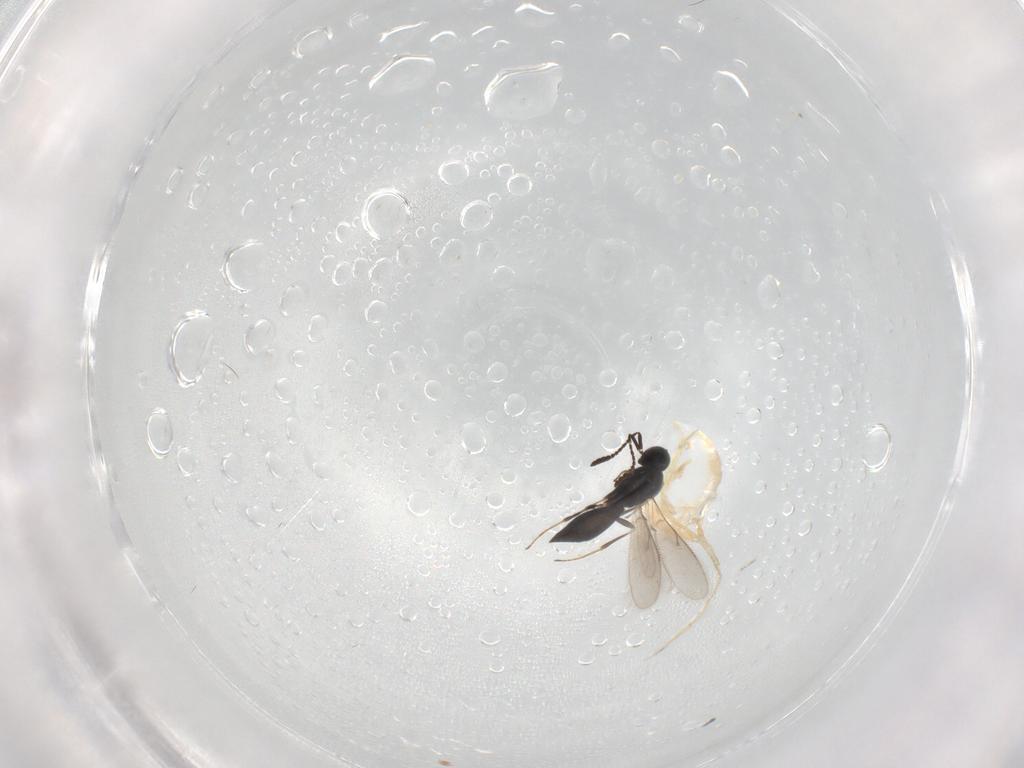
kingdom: Animalia
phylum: Arthropoda
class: Insecta
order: Hymenoptera
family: Scelionidae
